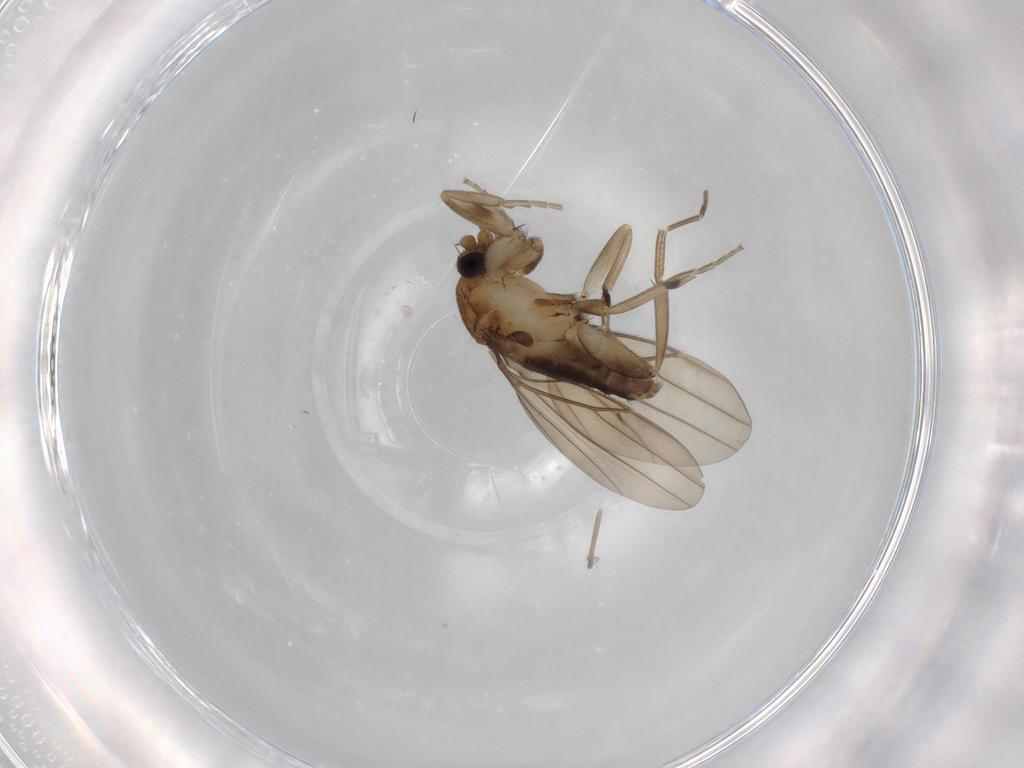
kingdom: Animalia
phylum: Arthropoda
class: Insecta
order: Diptera
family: Phoridae
